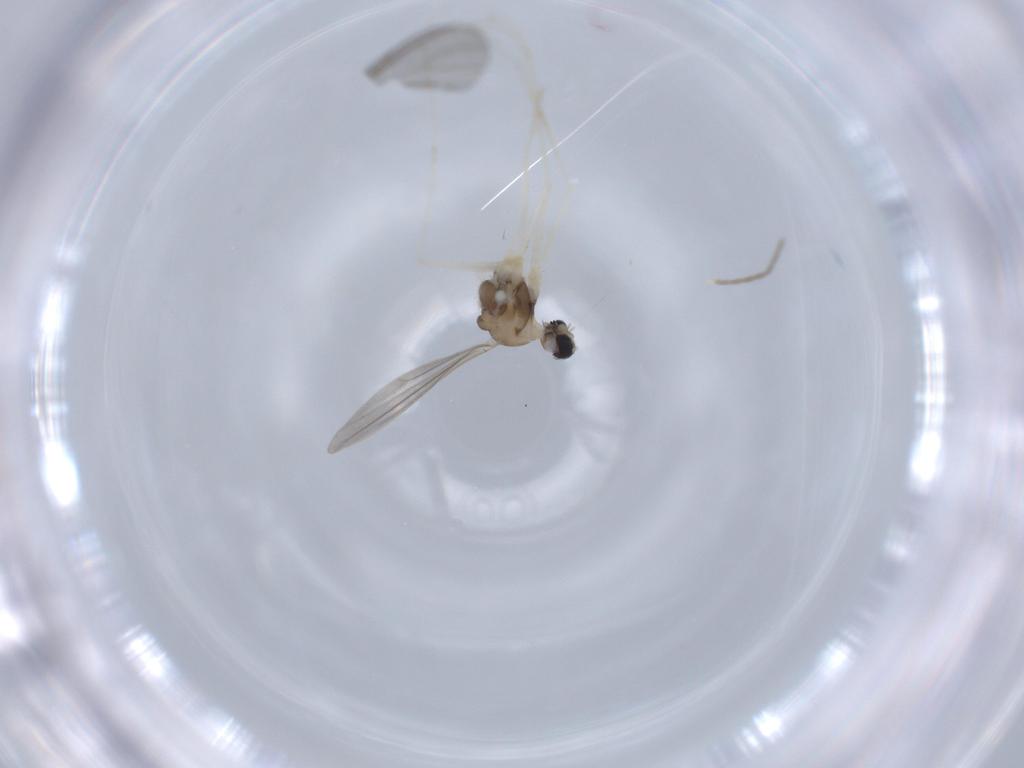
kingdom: Animalia
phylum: Arthropoda
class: Insecta
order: Diptera
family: Cecidomyiidae
